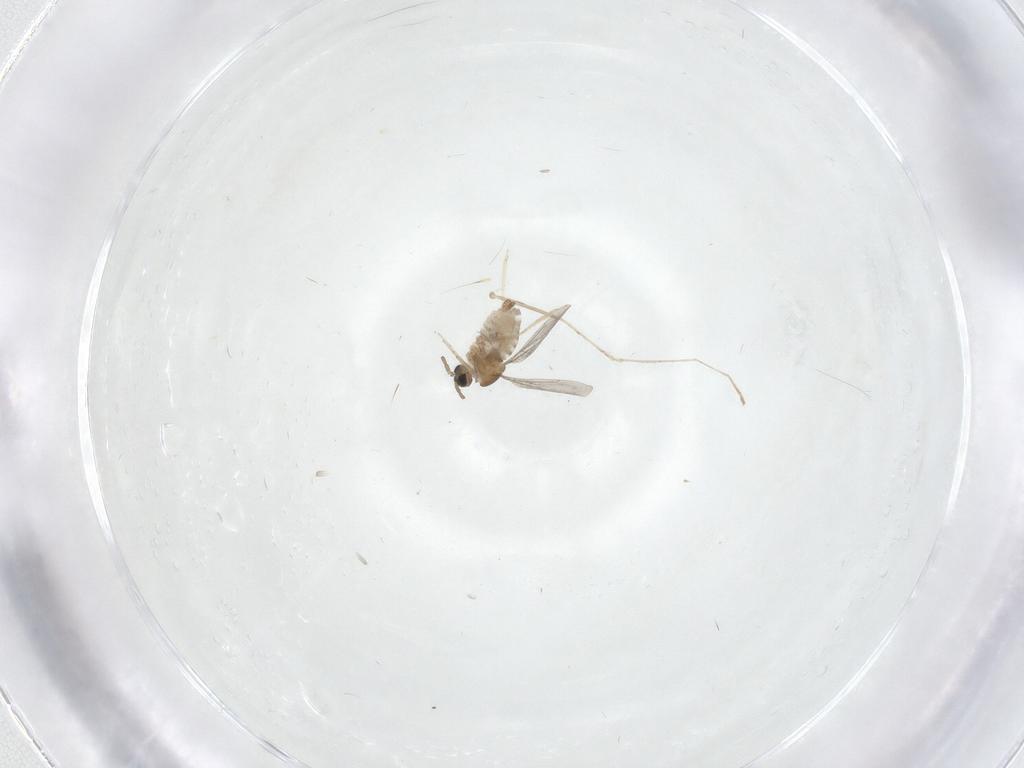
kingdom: Animalia
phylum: Arthropoda
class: Insecta
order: Diptera
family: Cecidomyiidae
